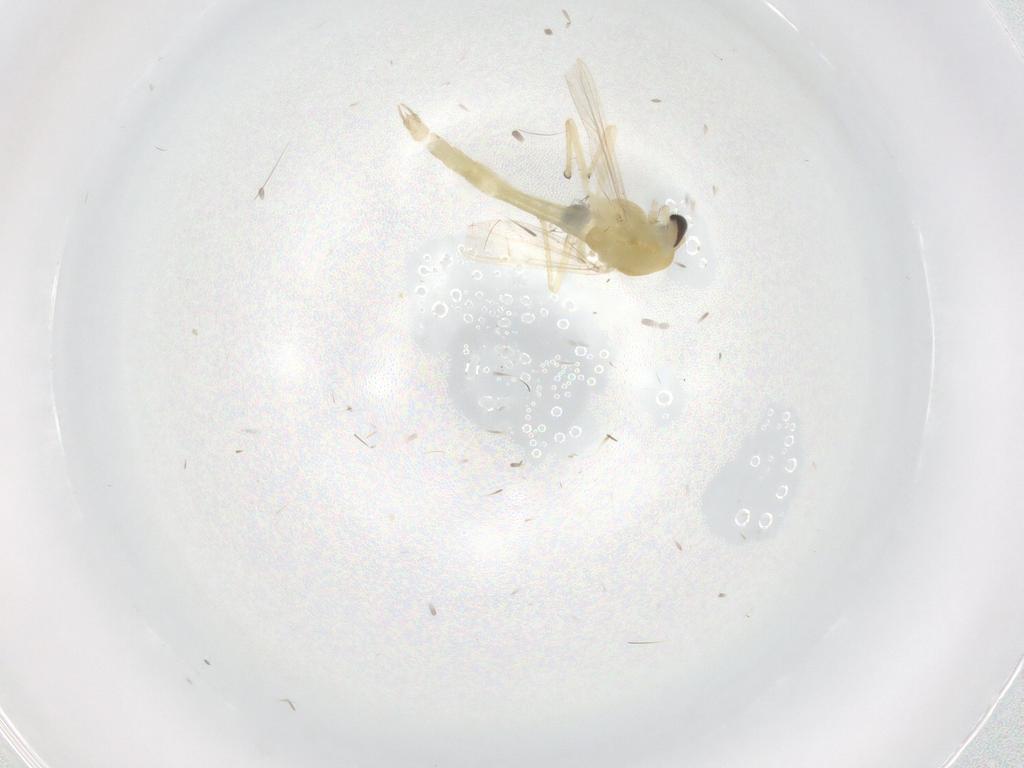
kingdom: Animalia
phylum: Arthropoda
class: Insecta
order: Diptera
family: Chironomidae
